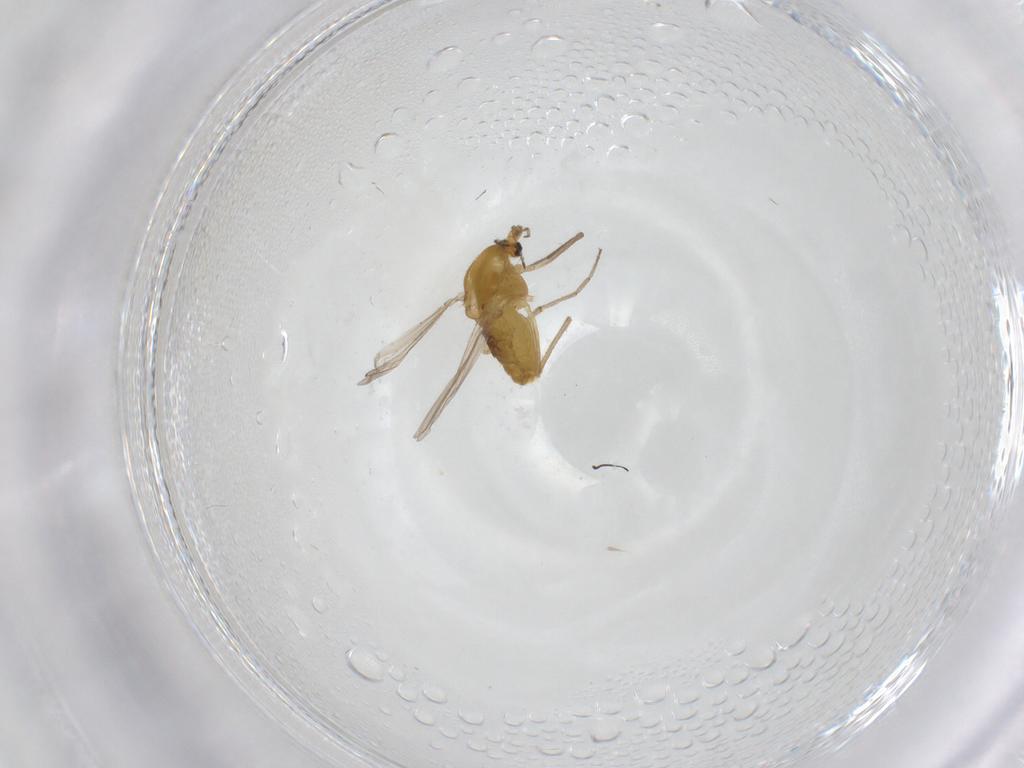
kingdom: Animalia
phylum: Arthropoda
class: Insecta
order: Diptera
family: Chironomidae
